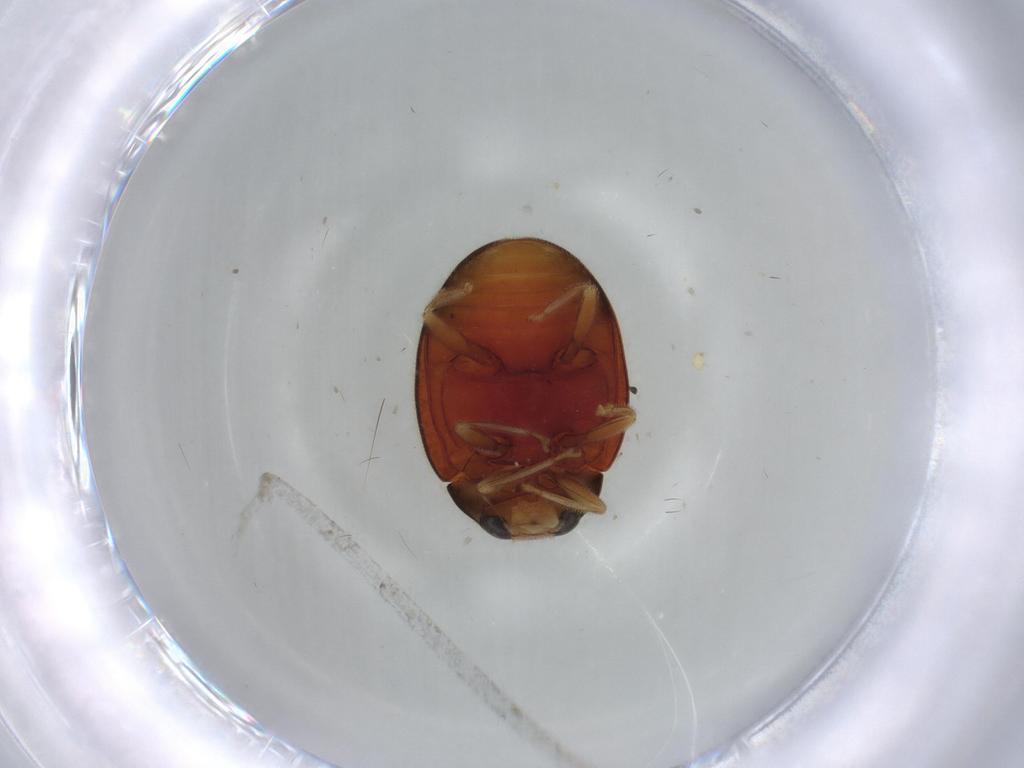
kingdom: Animalia
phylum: Arthropoda
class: Insecta
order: Coleoptera
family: Coccinellidae
